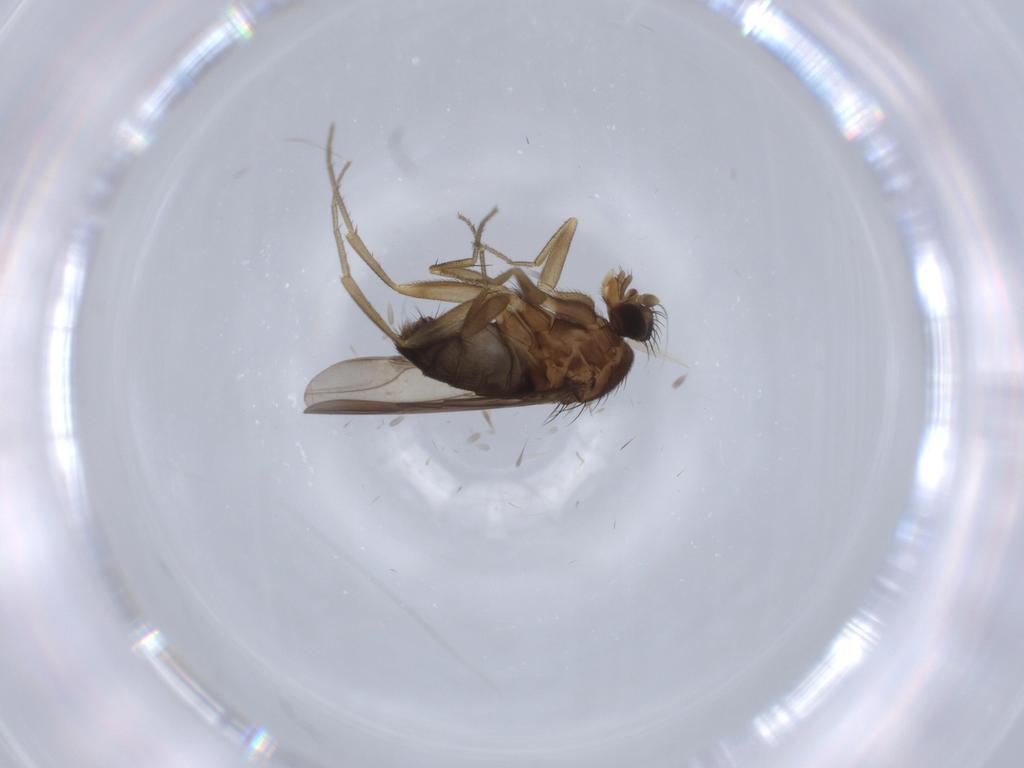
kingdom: Animalia
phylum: Arthropoda
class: Insecta
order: Diptera
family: Phoridae
